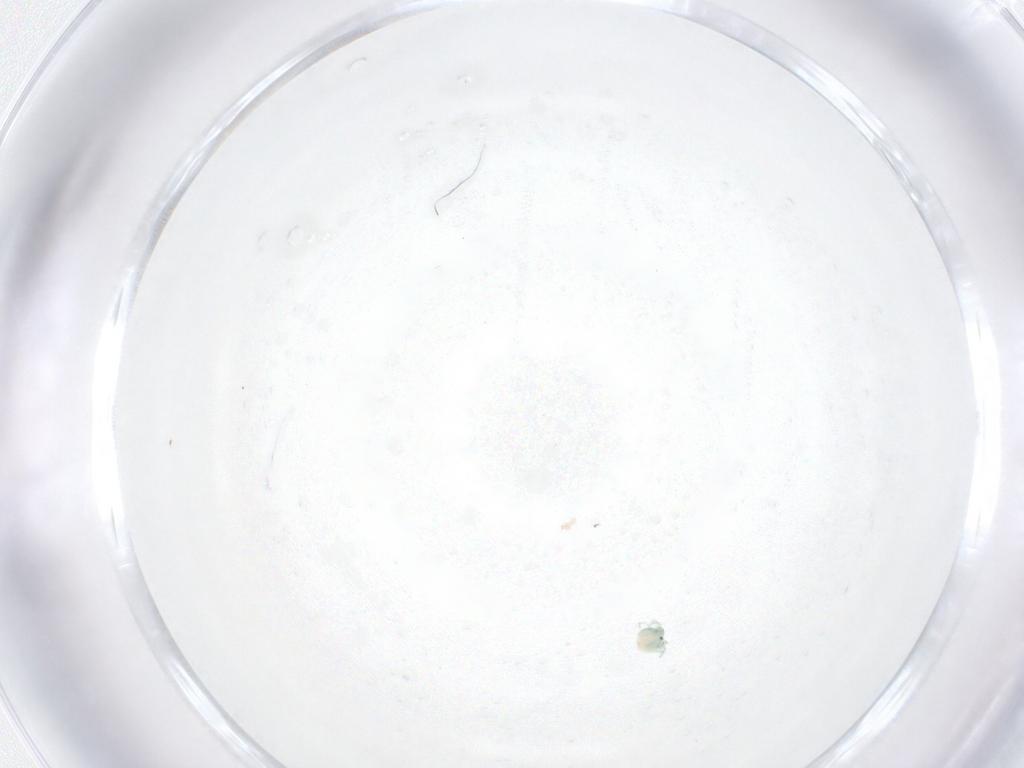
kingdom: Animalia
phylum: Arthropoda
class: Arachnida
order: Trombidiformes
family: Arrenuridae
